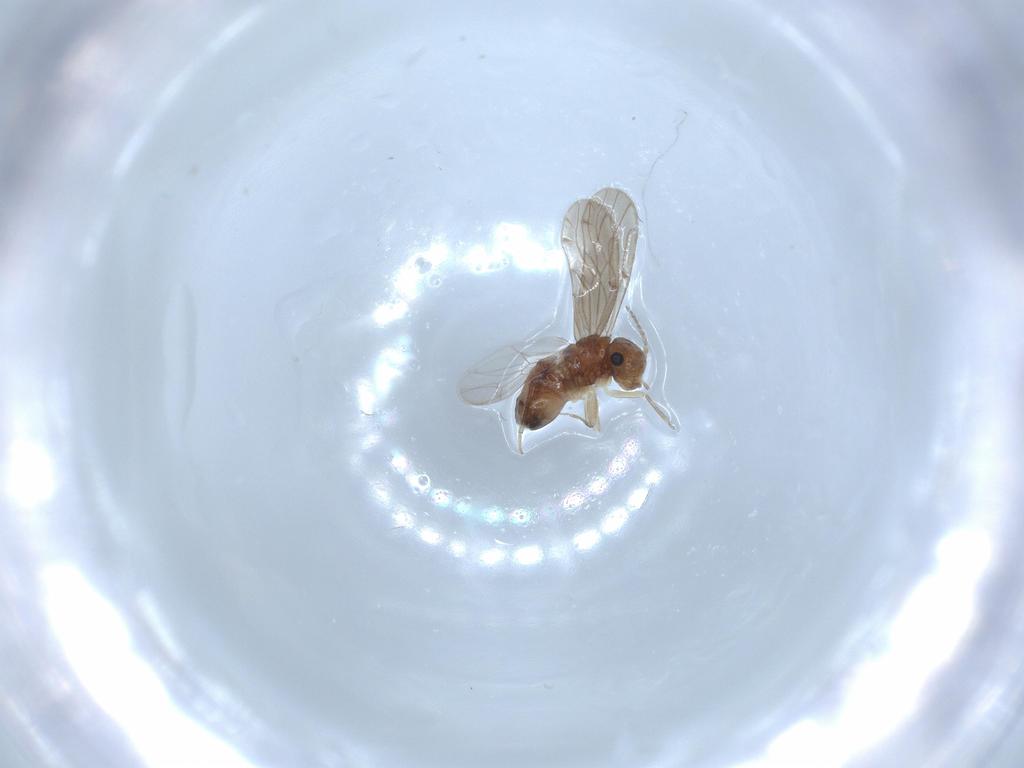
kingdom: Animalia
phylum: Arthropoda
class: Insecta
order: Psocodea
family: Ectopsocidae
